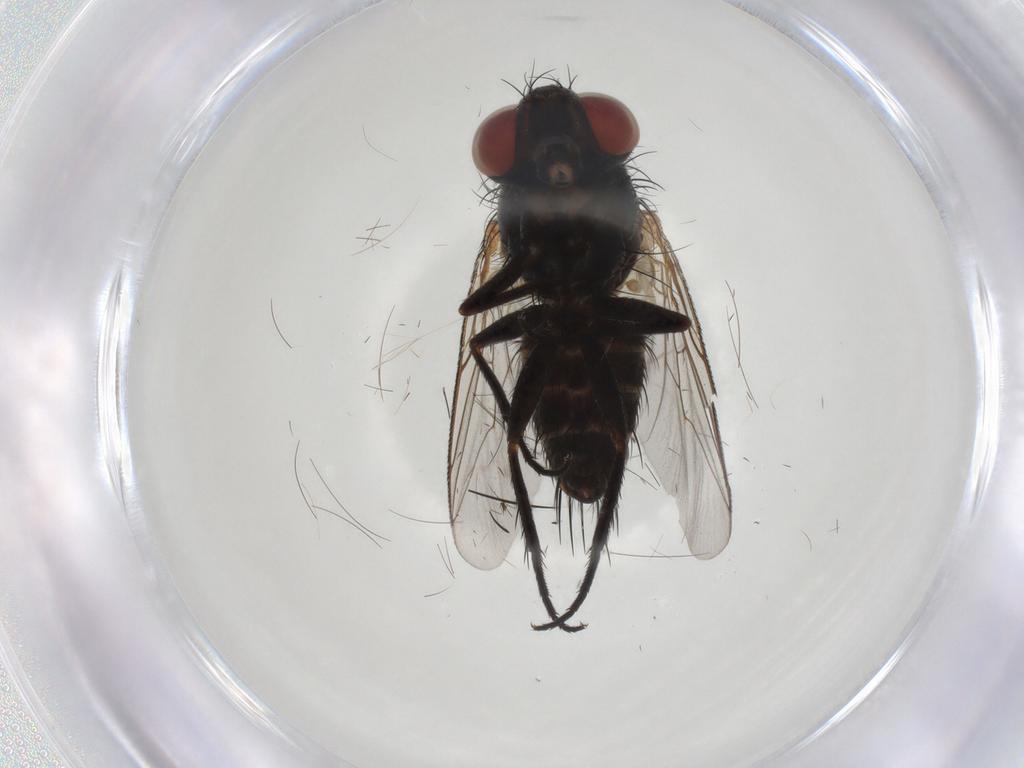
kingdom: Animalia
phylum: Arthropoda
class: Insecta
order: Diptera
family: Sarcophagidae
